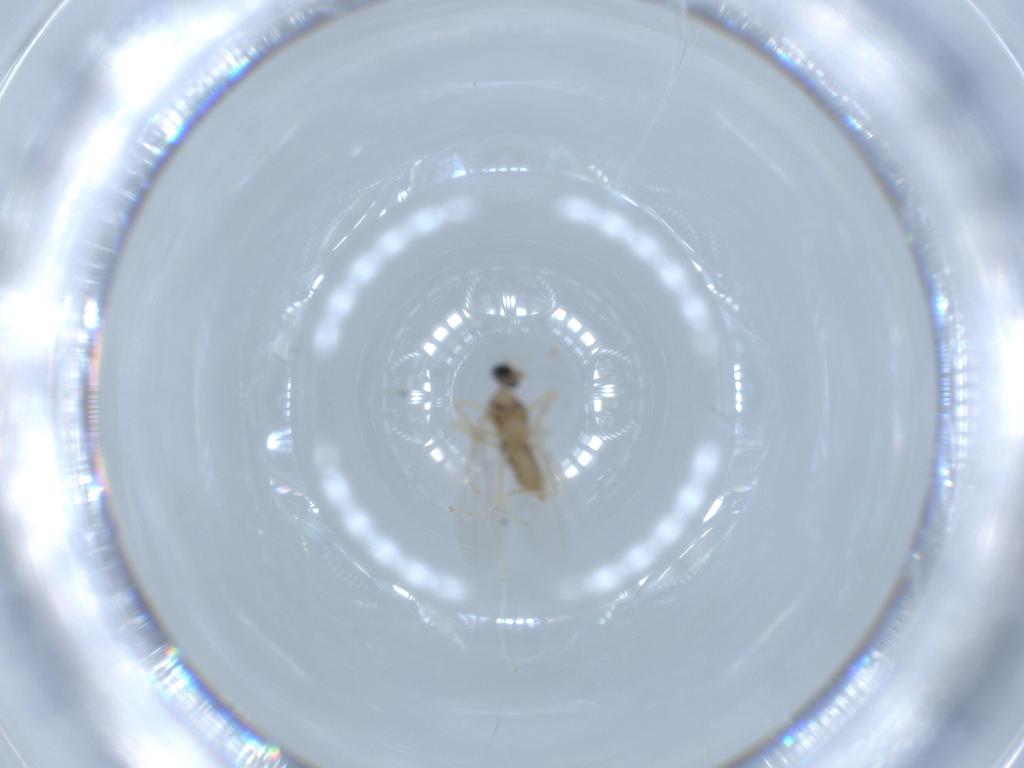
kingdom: Animalia
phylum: Arthropoda
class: Insecta
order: Diptera
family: Cecidomyiidae
